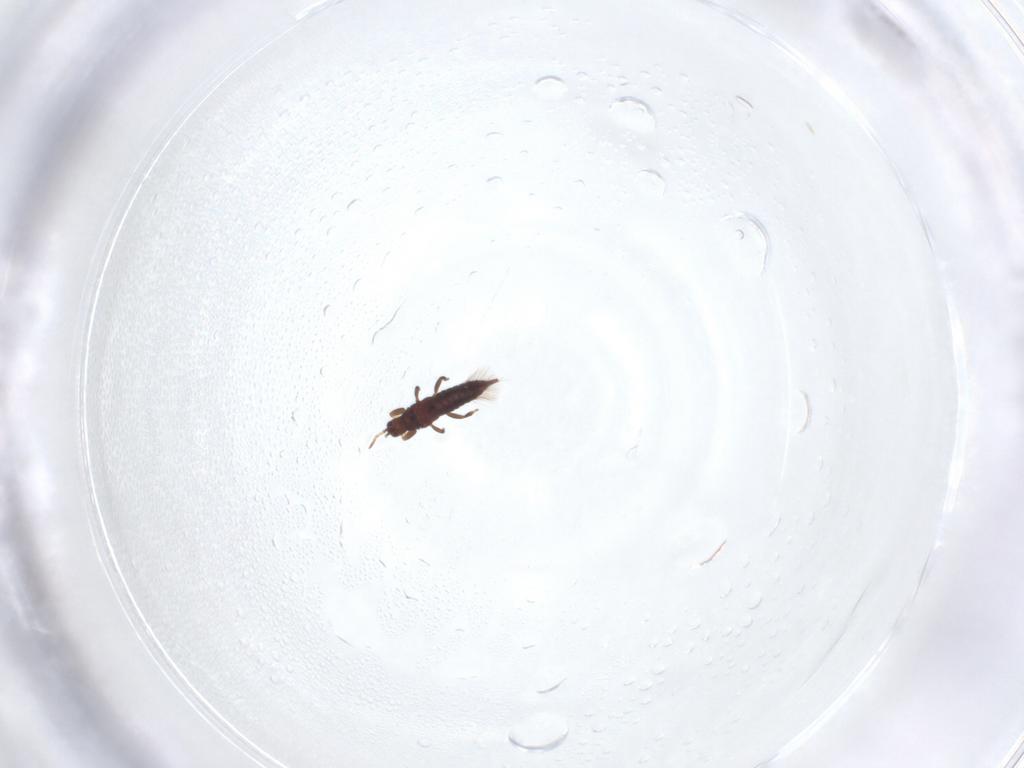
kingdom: Animalia
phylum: Arthropoda
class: Insecta
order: Thysanoptera
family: Phlaeothripidae
